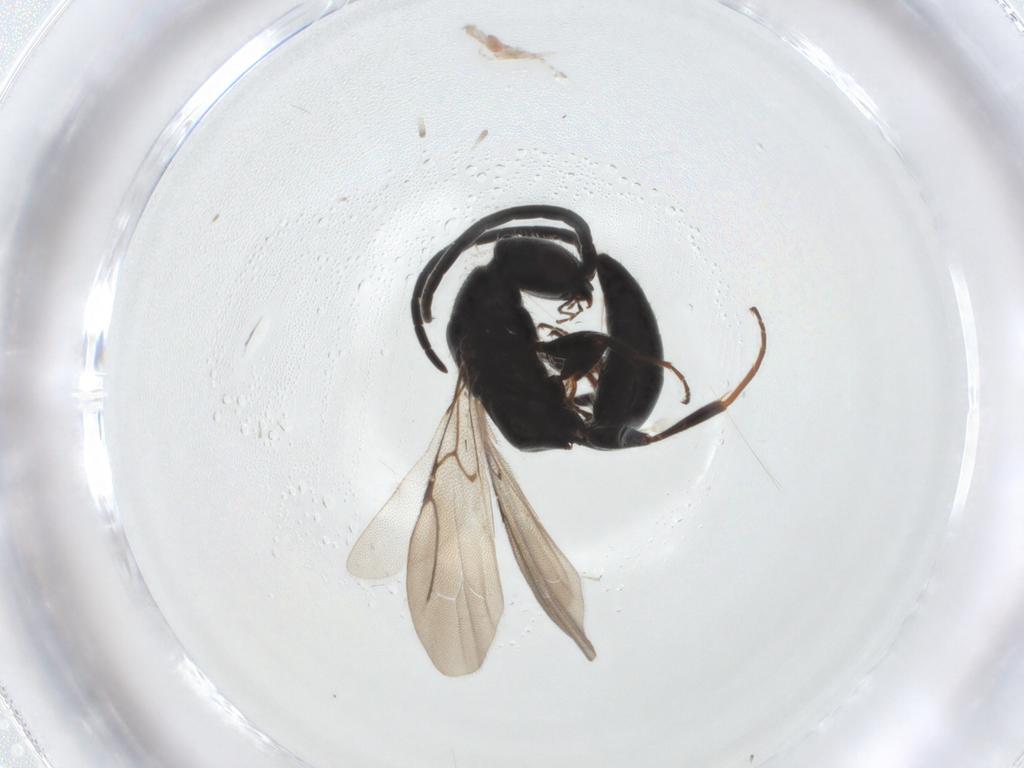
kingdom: Animalia
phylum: Arthropoda
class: Insecta
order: Hymenoptera
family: Bethylidae
